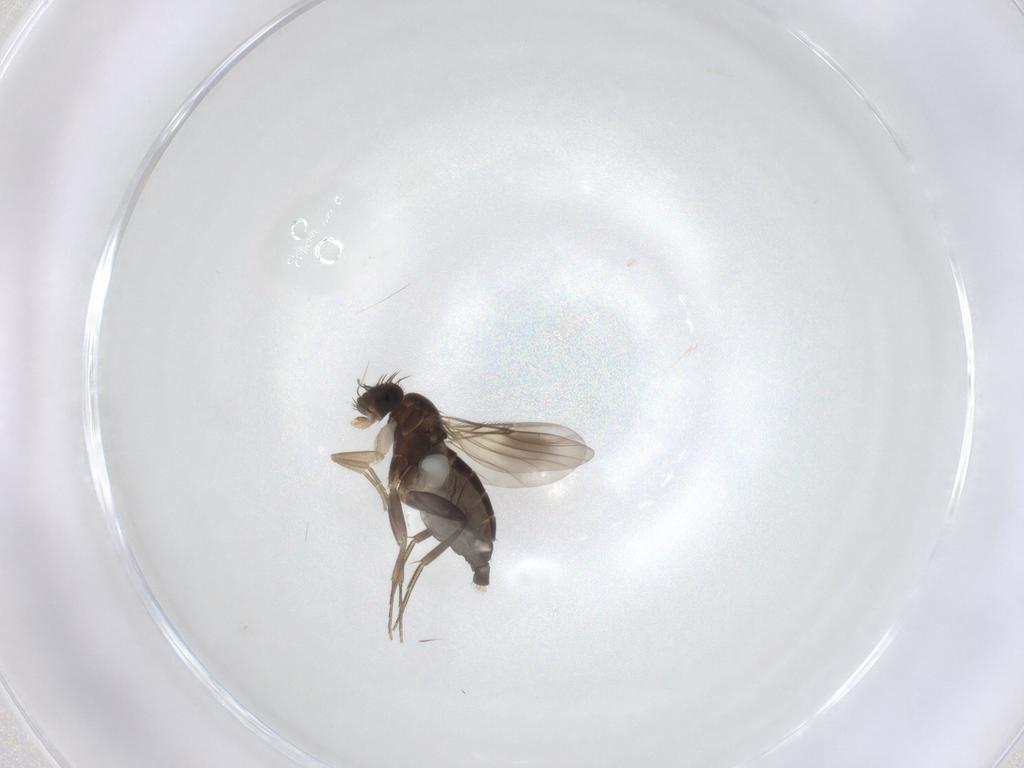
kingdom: Animalia
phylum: Arthropoda
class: Insecta
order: Diptera
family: Phoridae
